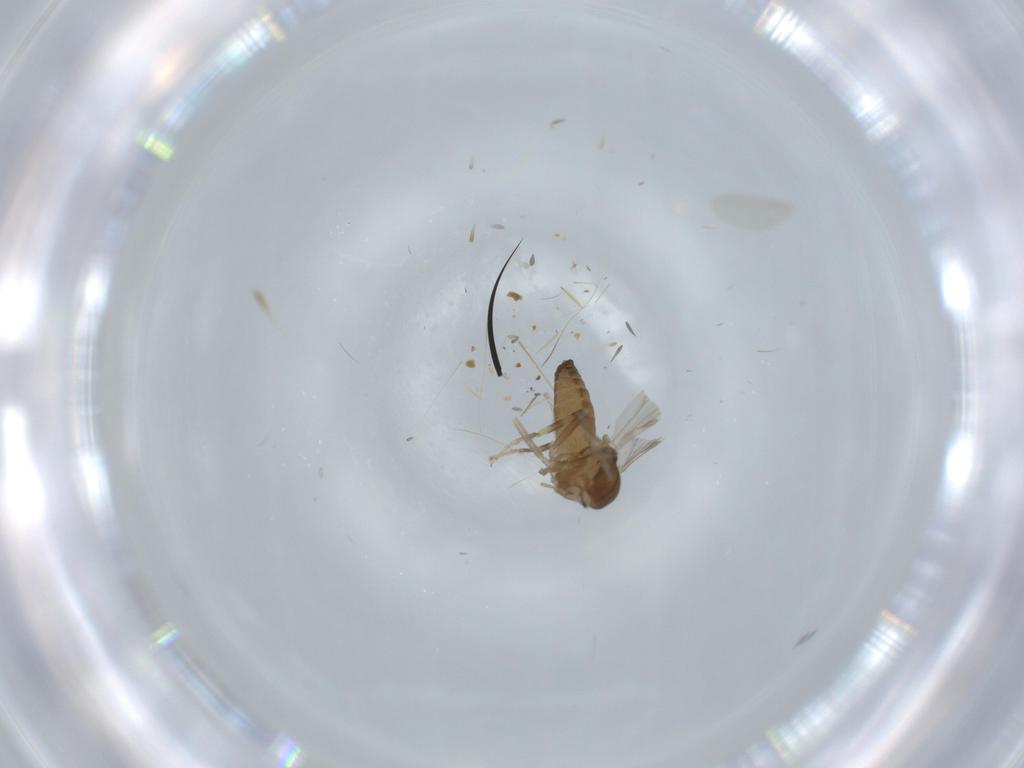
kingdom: Animalia
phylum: Arthropoda
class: Insecta
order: Diptera
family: Ceratopogonidae
